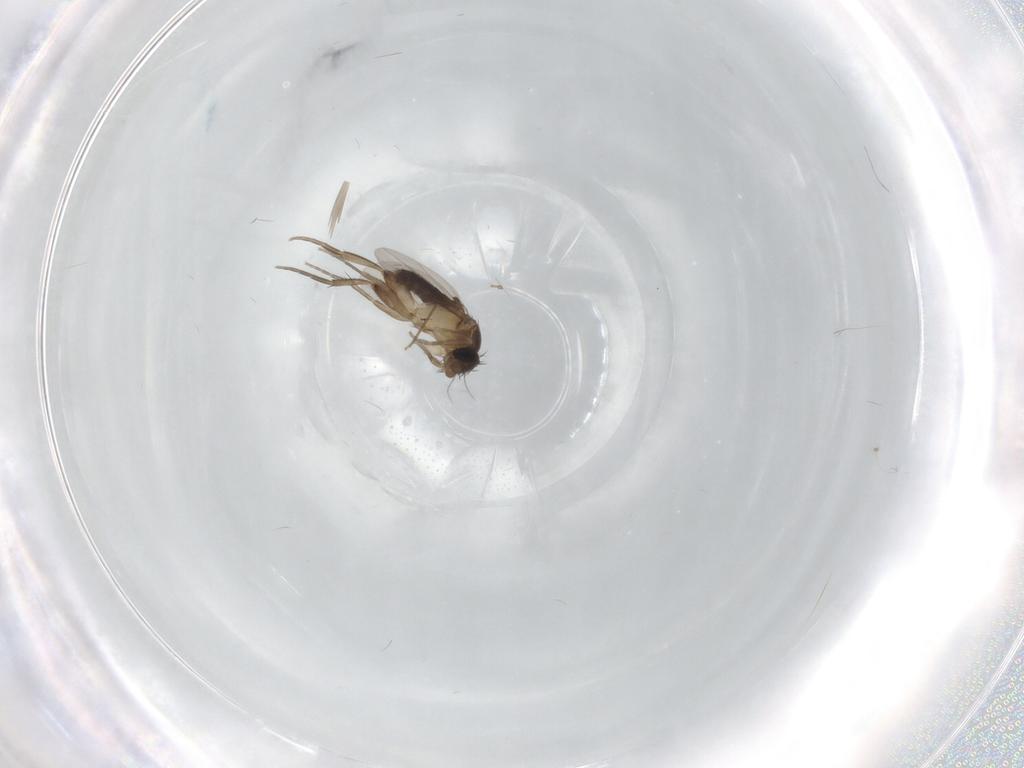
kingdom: Animalia
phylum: Arthropoda
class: Insecta
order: Diptera
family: Phoridae
